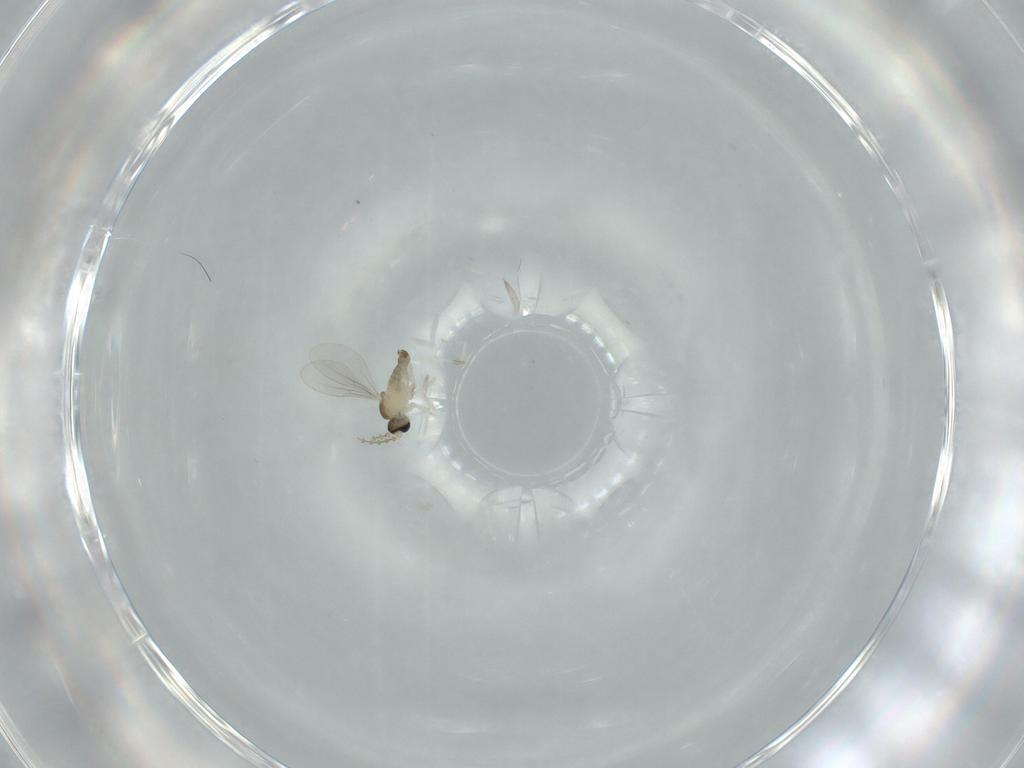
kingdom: Animalia
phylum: Arthropoda
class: Insecta
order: Diptera
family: Cecidomyiidae
